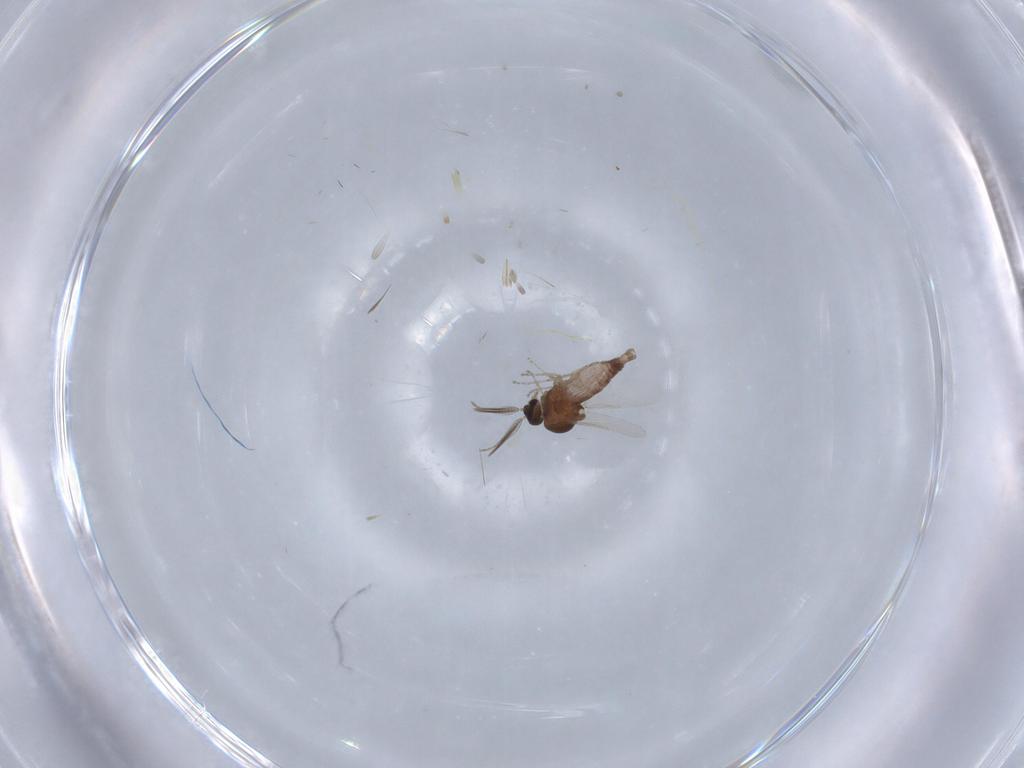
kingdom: Animalia
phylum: Arthropoda
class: Insecta
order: Diptera
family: Ceratopogonidae
